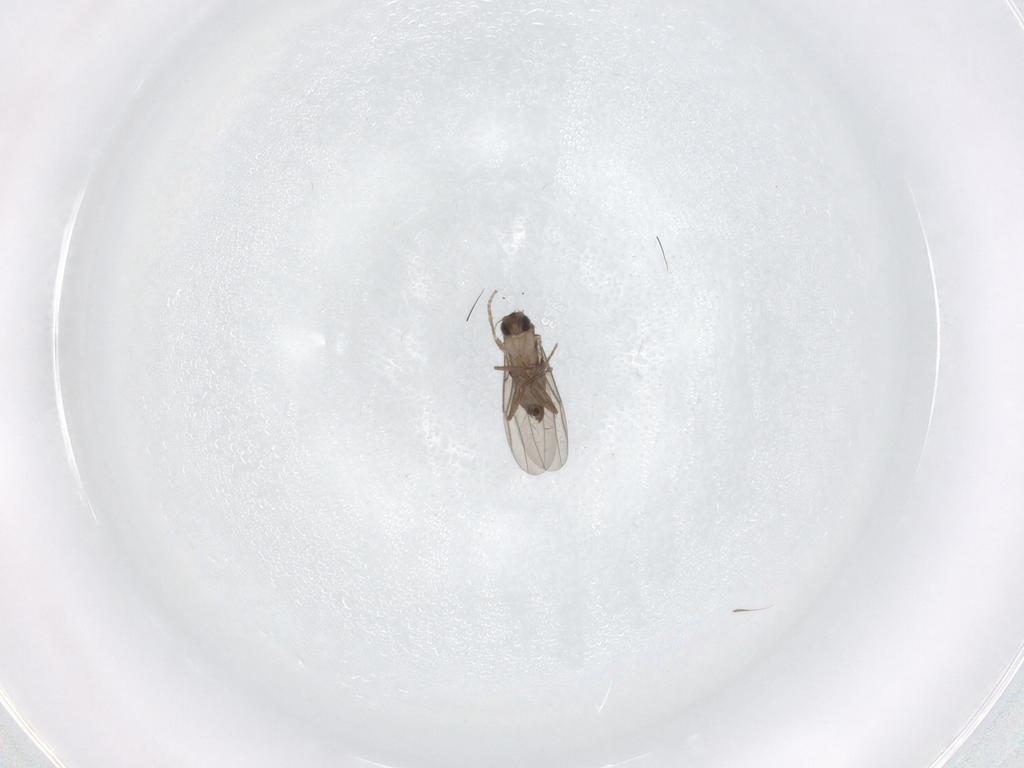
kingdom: Animalia
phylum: Arthropoda
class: Insecta
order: Diptera
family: Phoridae
